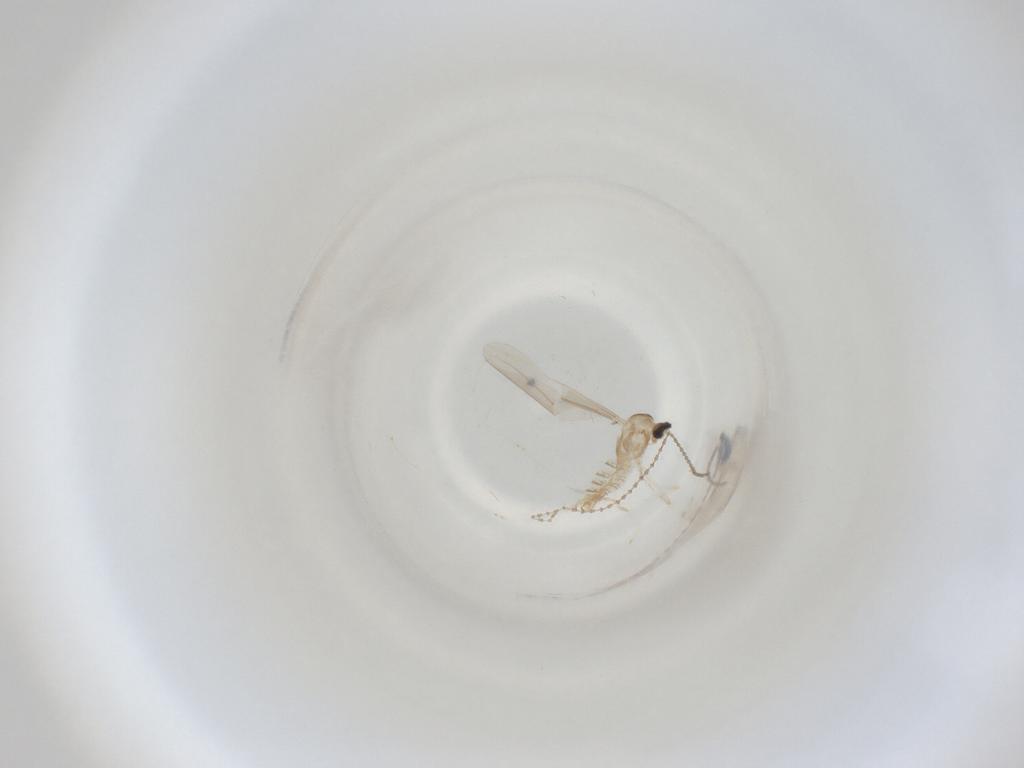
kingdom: Animalia
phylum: Arthropoda
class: Insecta
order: Diptera
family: Cecidomyiidae
